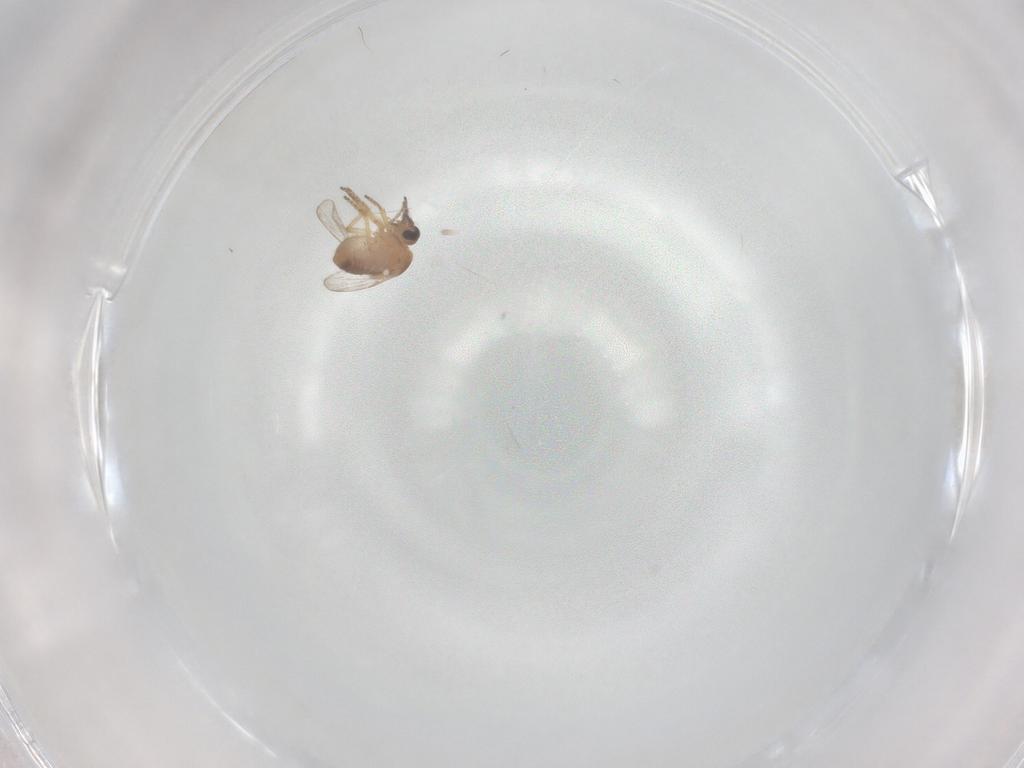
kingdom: Animalia
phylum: Arthropoda
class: Insecta
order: Diptera
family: Ceratopogonidae
